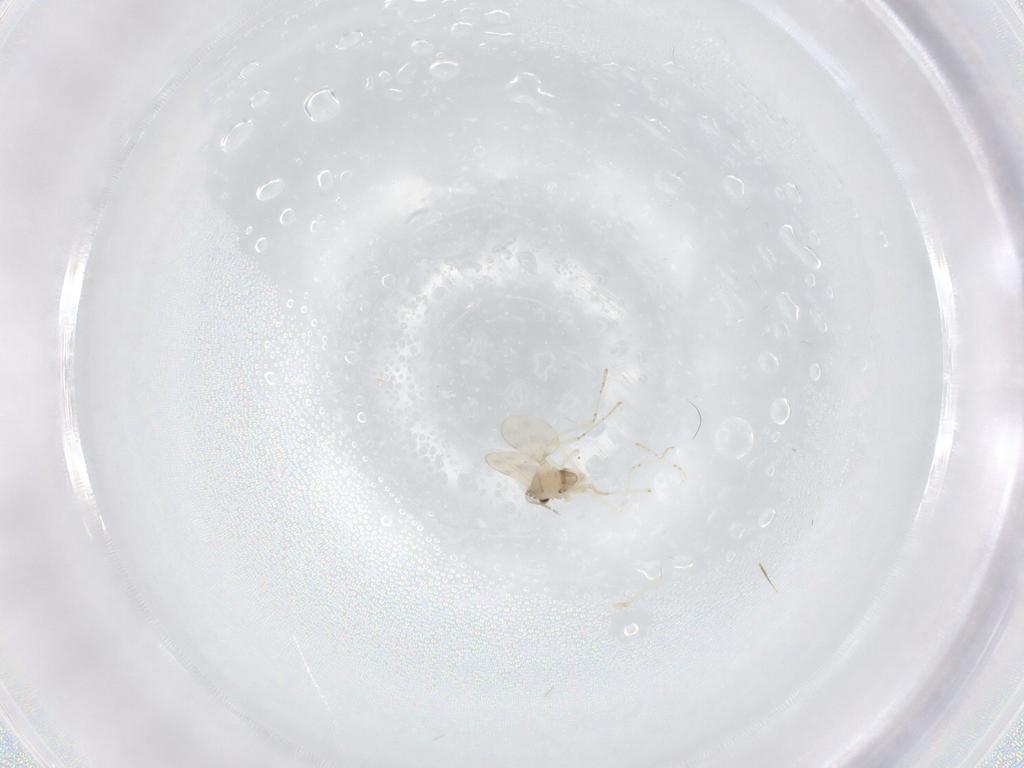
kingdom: Animalia
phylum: Arthropoda
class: Insecta
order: Diptera
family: Cecidomyiidae
